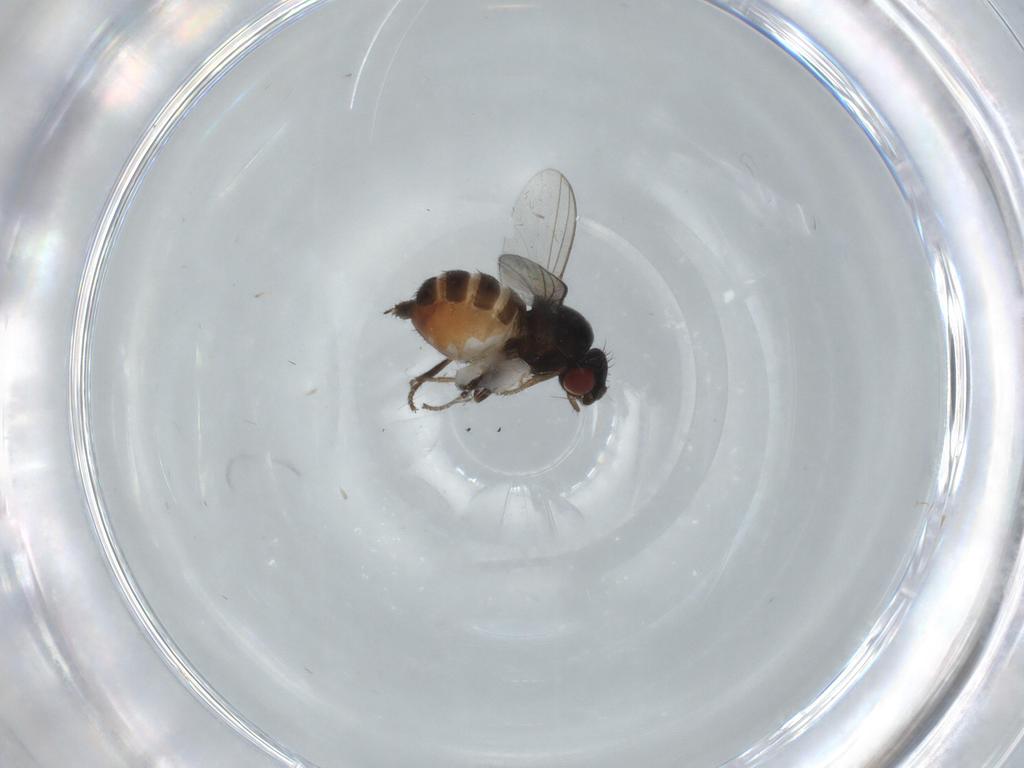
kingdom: Animalia
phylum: Arthropoda
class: Insecta
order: Diptera
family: Milichiidae
